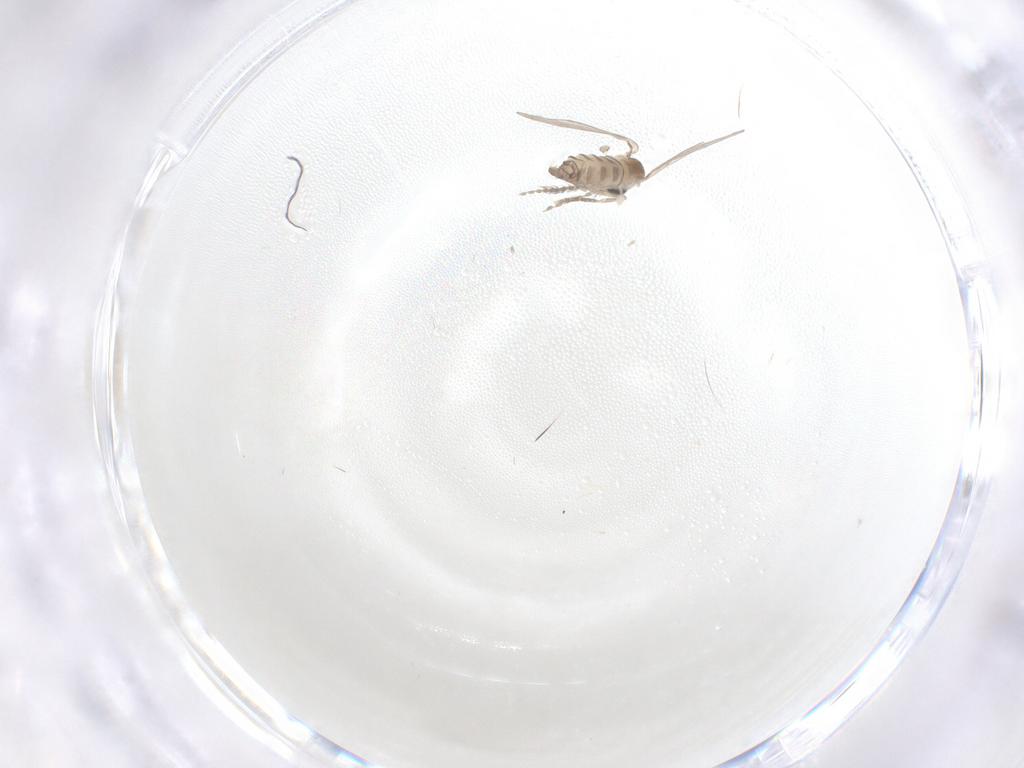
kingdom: Animalia
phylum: Arthropoda
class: Insecta
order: Diptera
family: Phoridae
